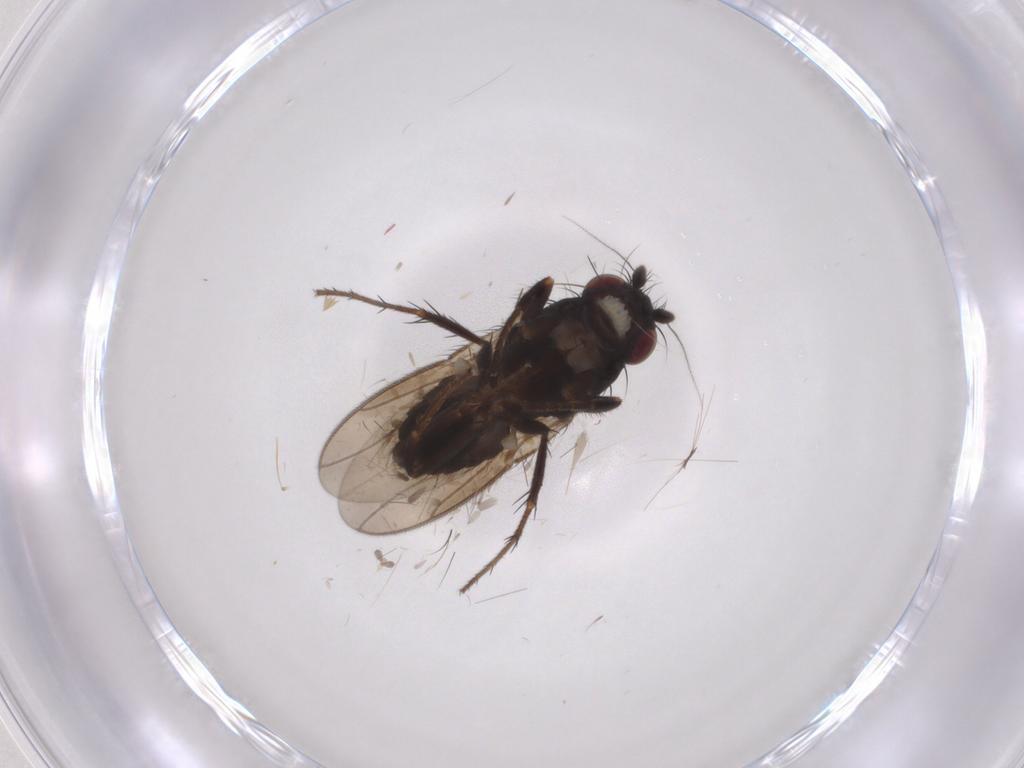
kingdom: Animalia
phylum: Arthropoda
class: Insecta
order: Diptera
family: Sphaeroceridae
